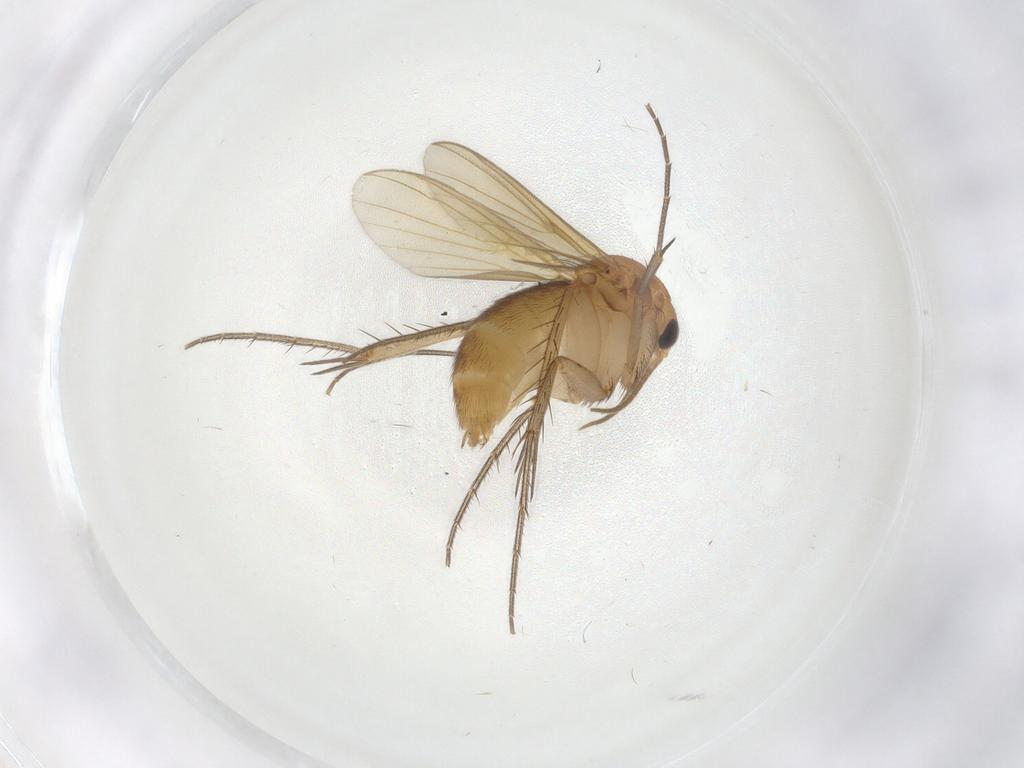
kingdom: Animalia
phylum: Arthropoda
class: Insecta
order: Diptera
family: Mycetophilidae
